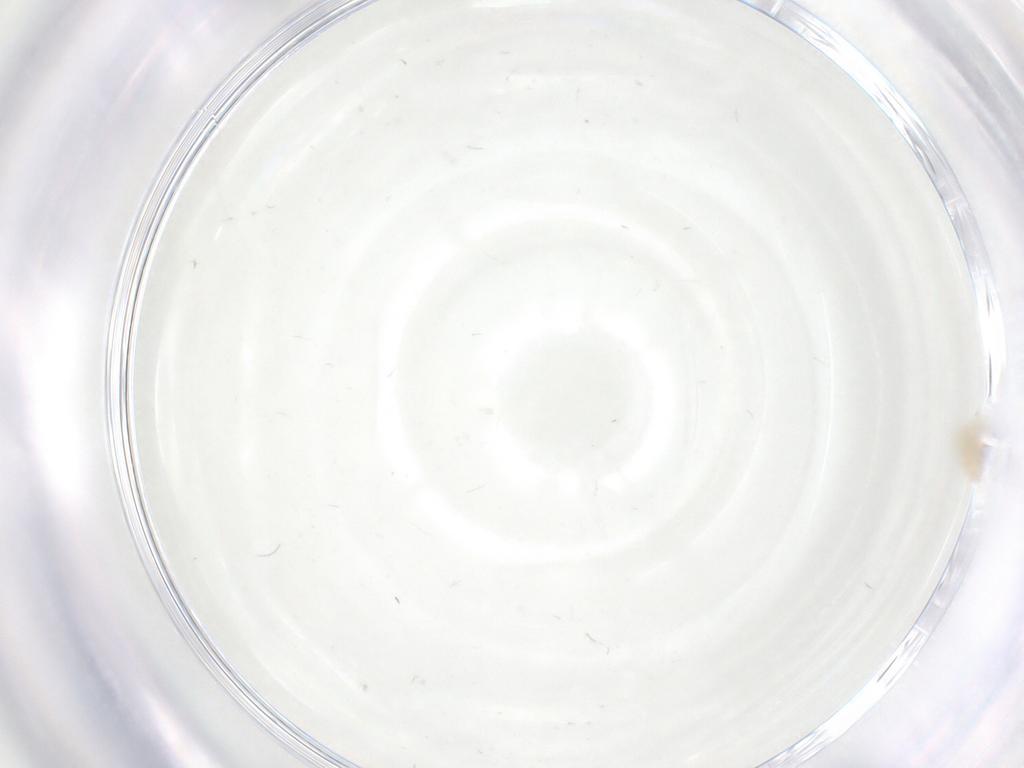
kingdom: Animalia
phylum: Arthropoda
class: Arachnida
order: Trombidiformes
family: Anystidae
